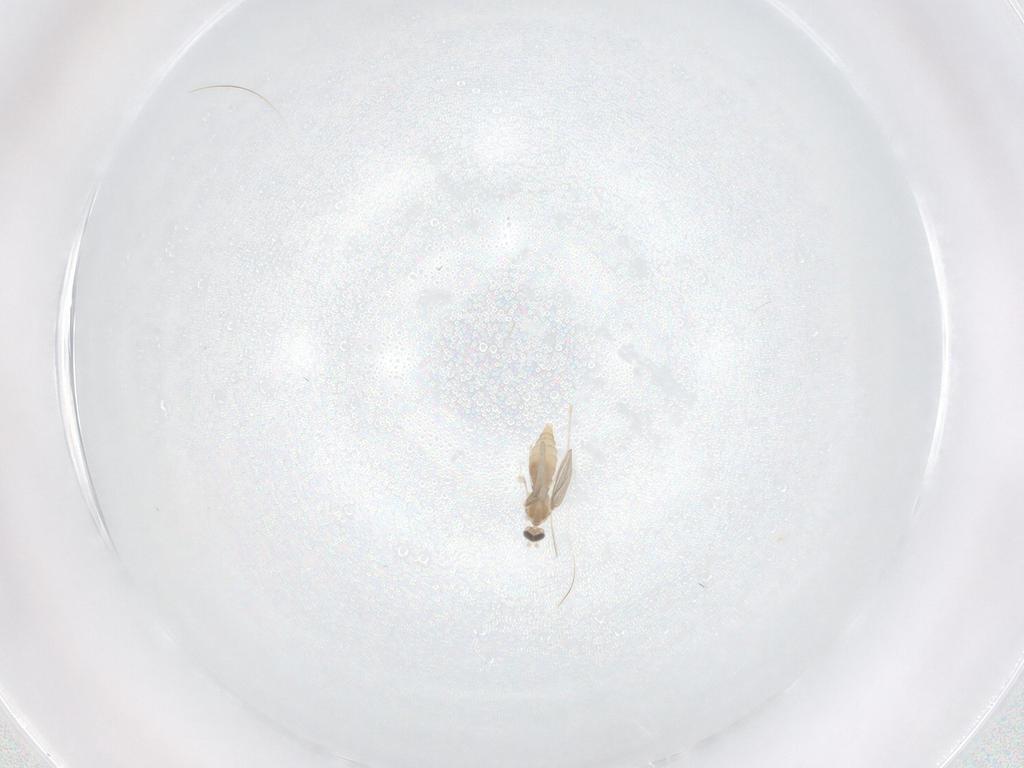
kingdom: Animalia
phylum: Arthropoda
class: Insecta
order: Diptera
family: Cecidomyiidae
